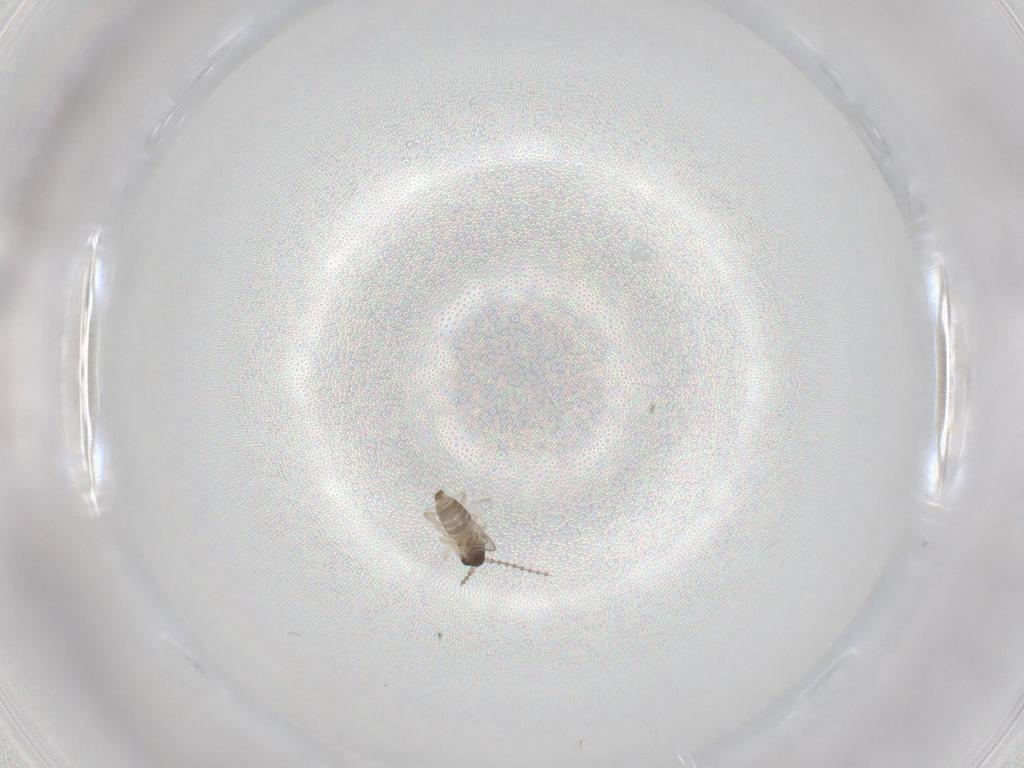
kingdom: Animalia
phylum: Arthropoda
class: Insecta
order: Diptera
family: Cecidomyiidae
